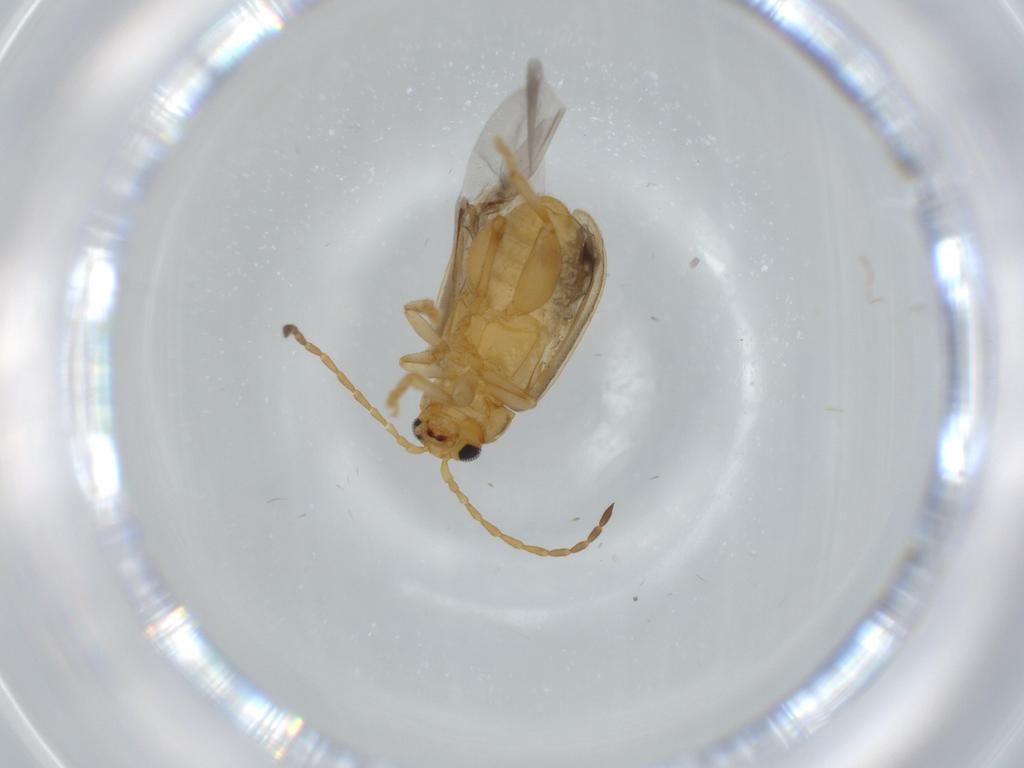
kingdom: Animalia
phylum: Arthropoda
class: Insecta
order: Coleoptera
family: Chrysomelidae
